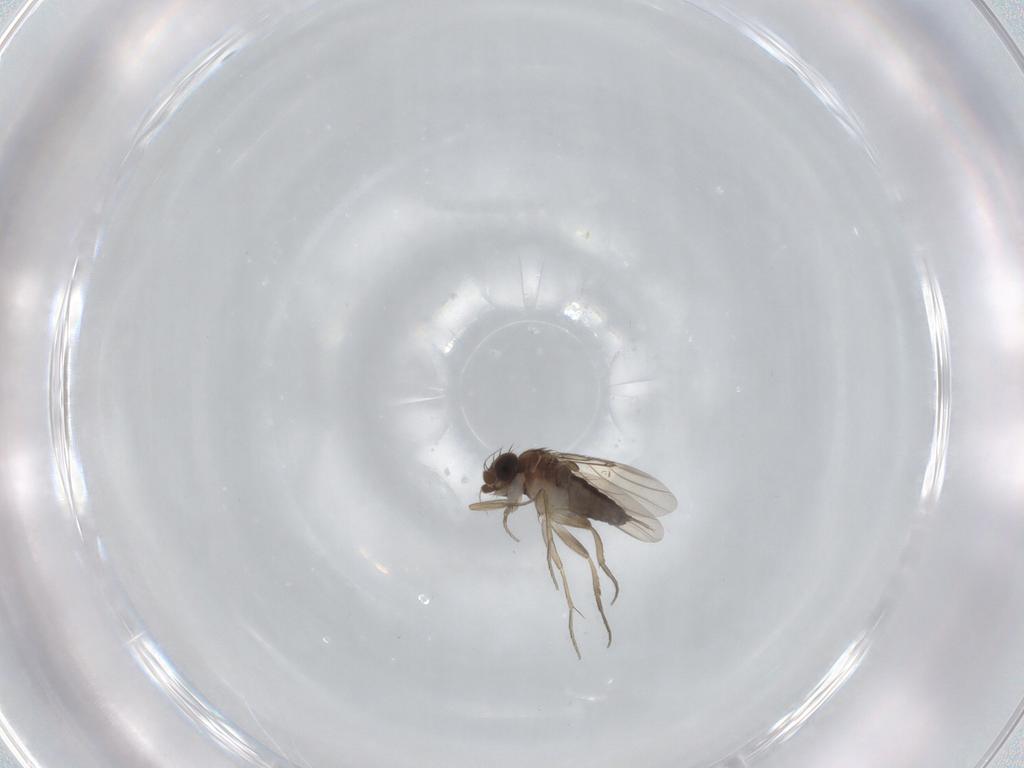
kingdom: Animalia
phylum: Arthropoda
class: Insecta
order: Diptera
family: Phoridae
